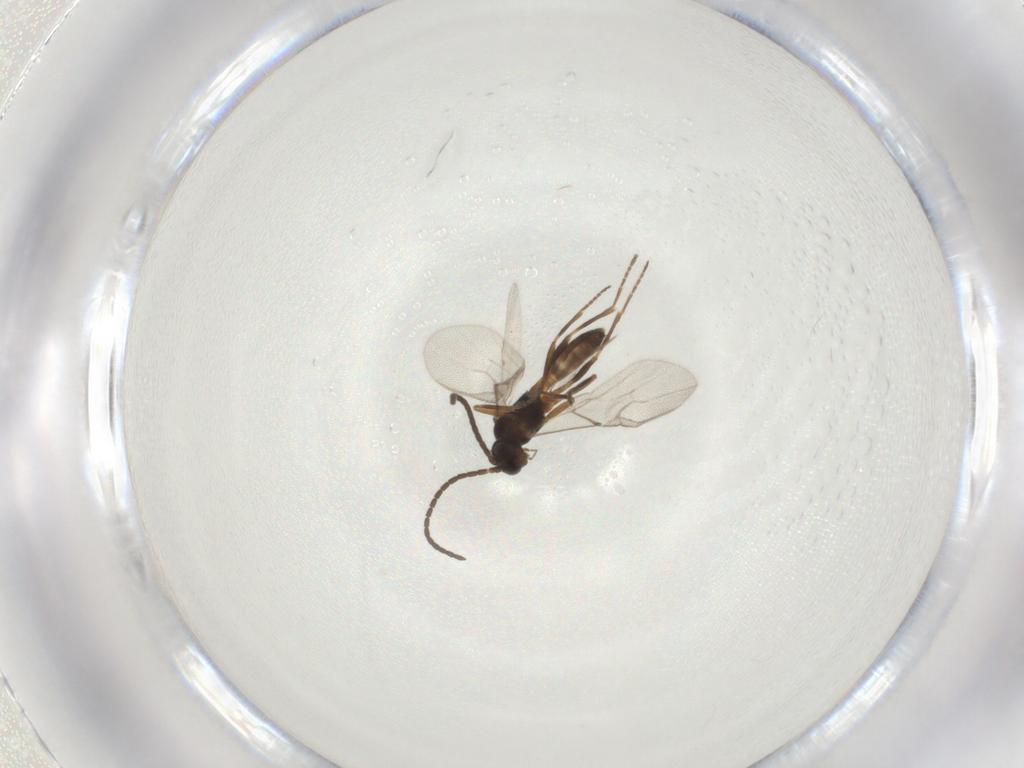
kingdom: Animalia
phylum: Arthropoda
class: Insecta
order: Hymenoptera
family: Braconidae
